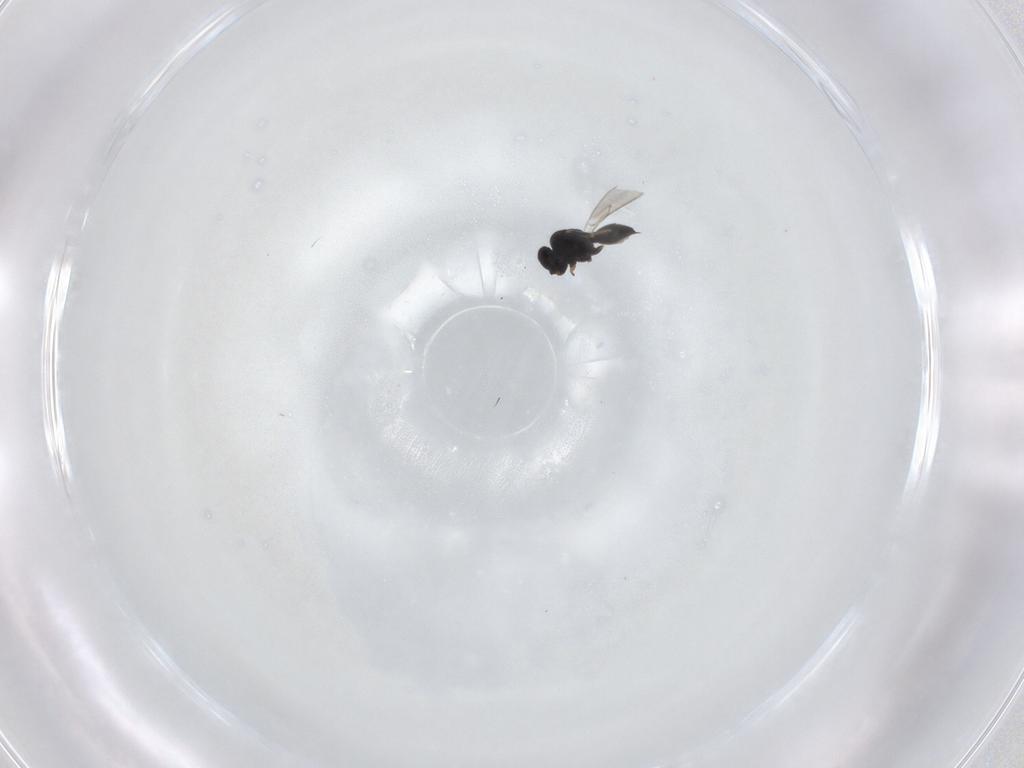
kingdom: Animalia
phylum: Arthropoda
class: Insecta
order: Hymenoptera
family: Scelionidae
